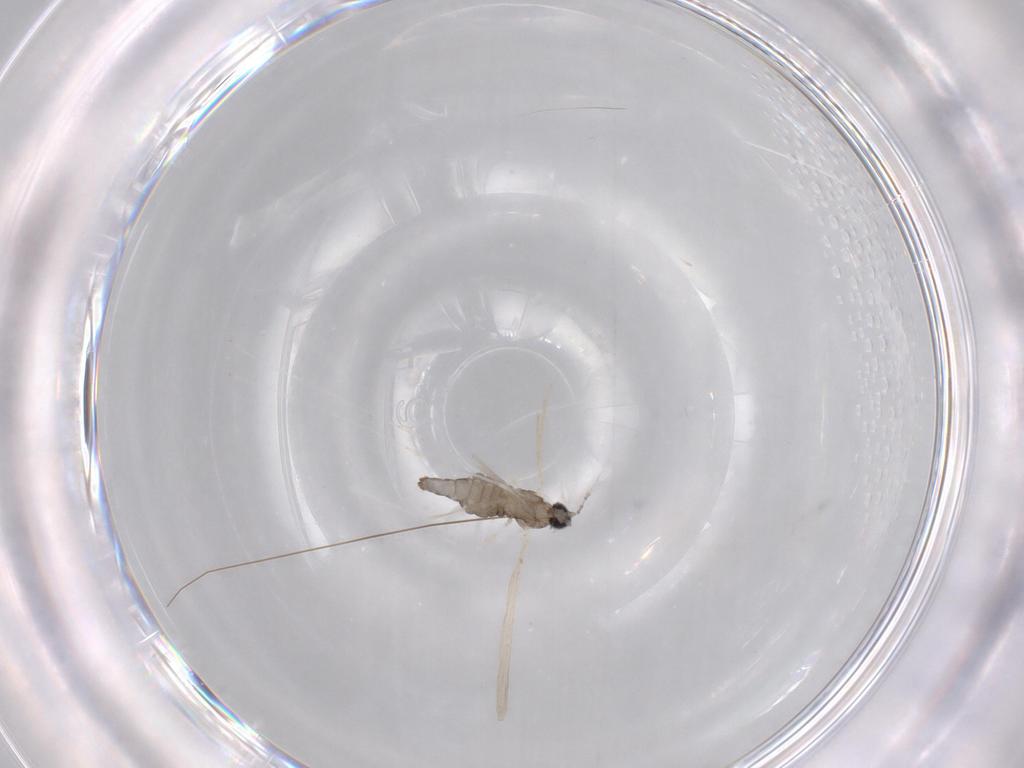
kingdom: Animalia
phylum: Arthropoda
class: Insecta
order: Diptera
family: Cecidomyiidae
